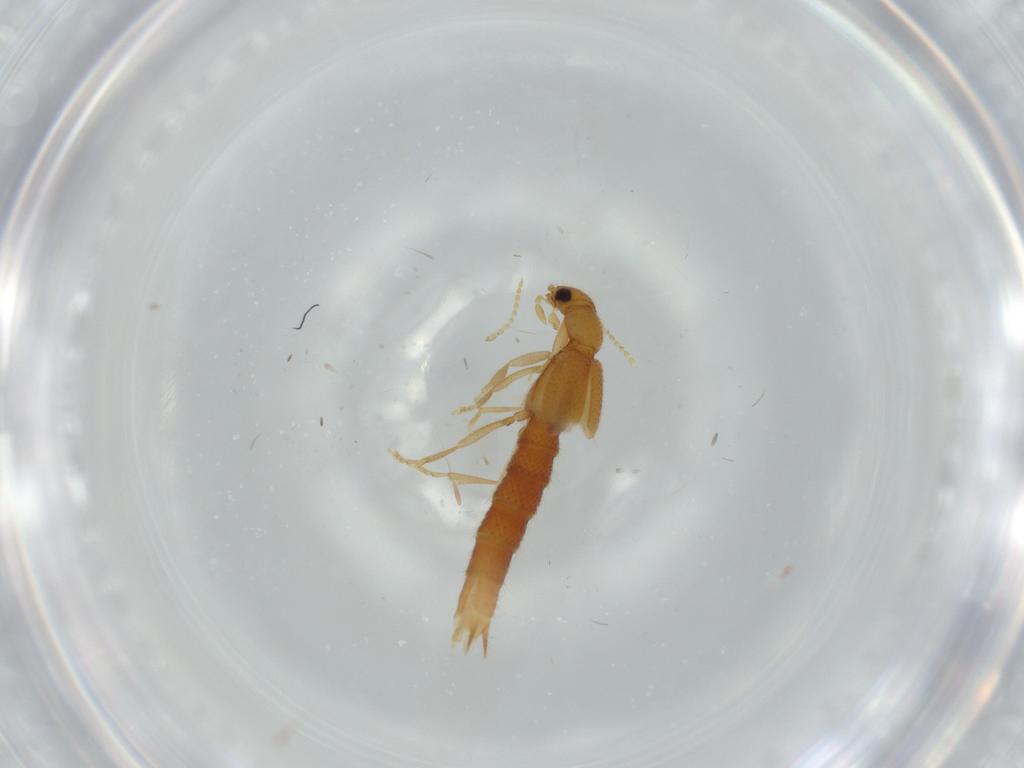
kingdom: Animalia
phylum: Arthropoda
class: Insecta
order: Coleoptera
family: Staphylinidae
